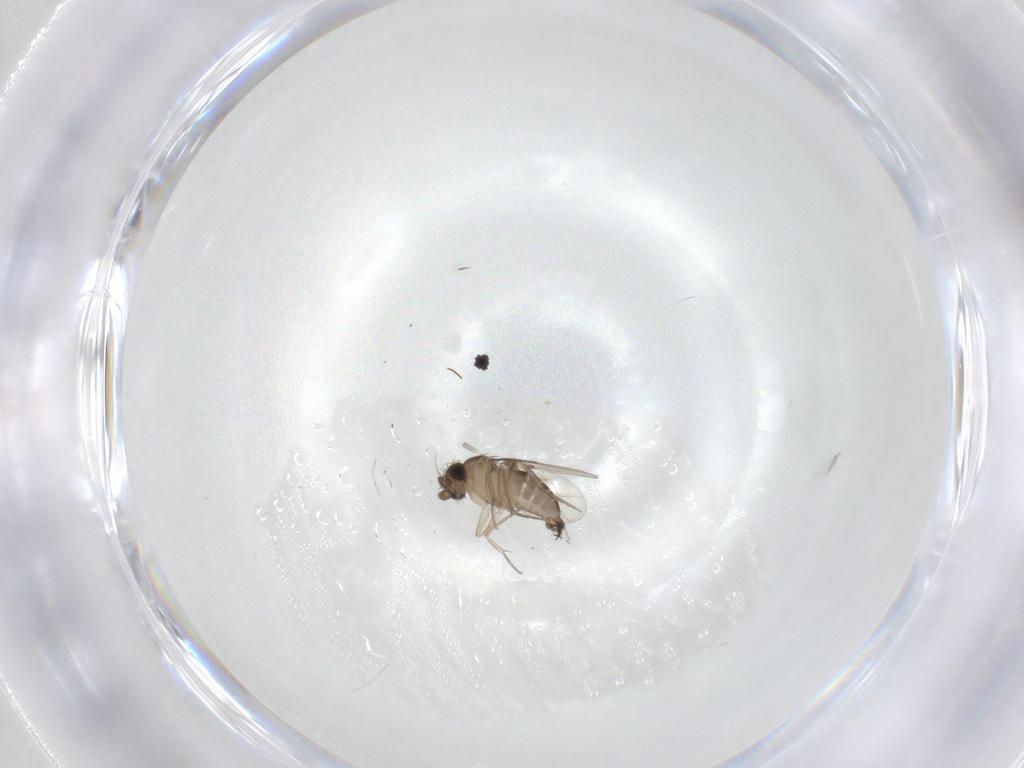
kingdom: Animalia
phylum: Arthropoda
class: Insecta
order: Diptera
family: Phoridae
